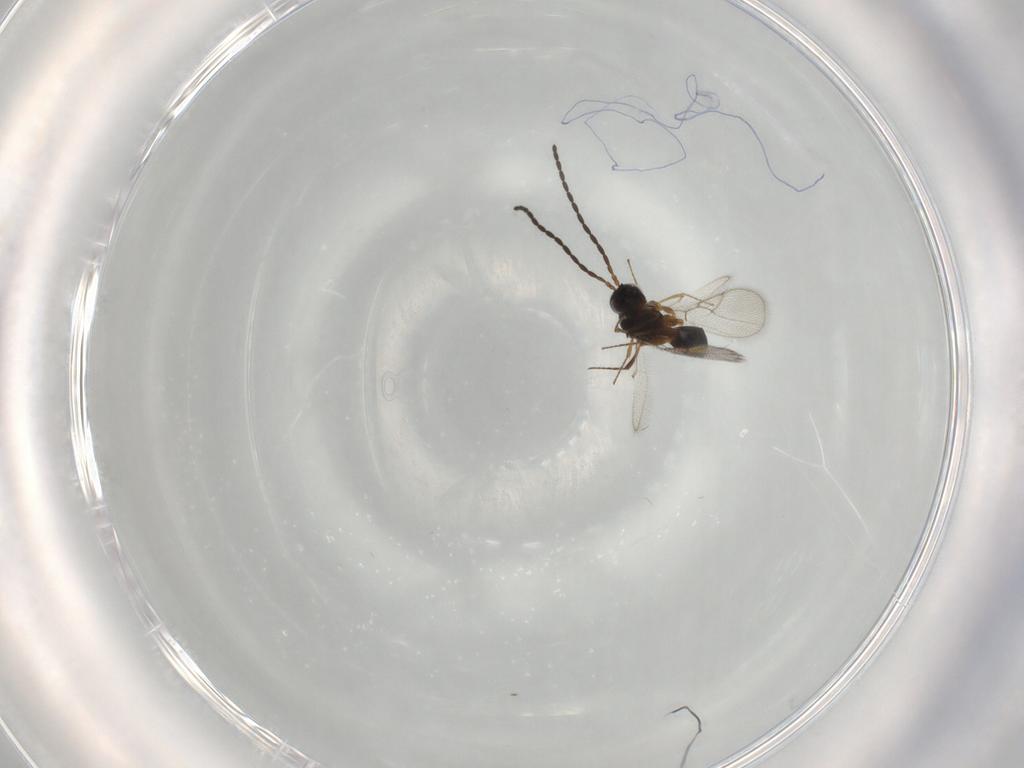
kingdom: Animalia
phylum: Arthropoda
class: Insecta
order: Hymenoptera
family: Figitidae
